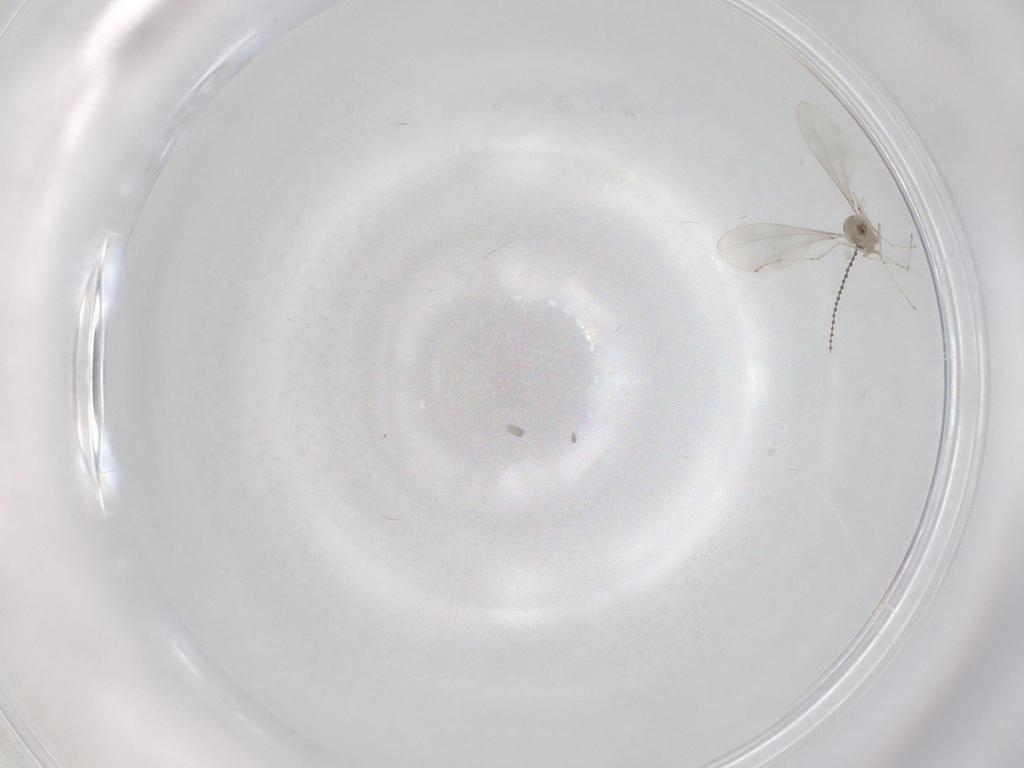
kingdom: Animalia
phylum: Arthropoda
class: Insecta
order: Diptera
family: Cecidomyiidae
